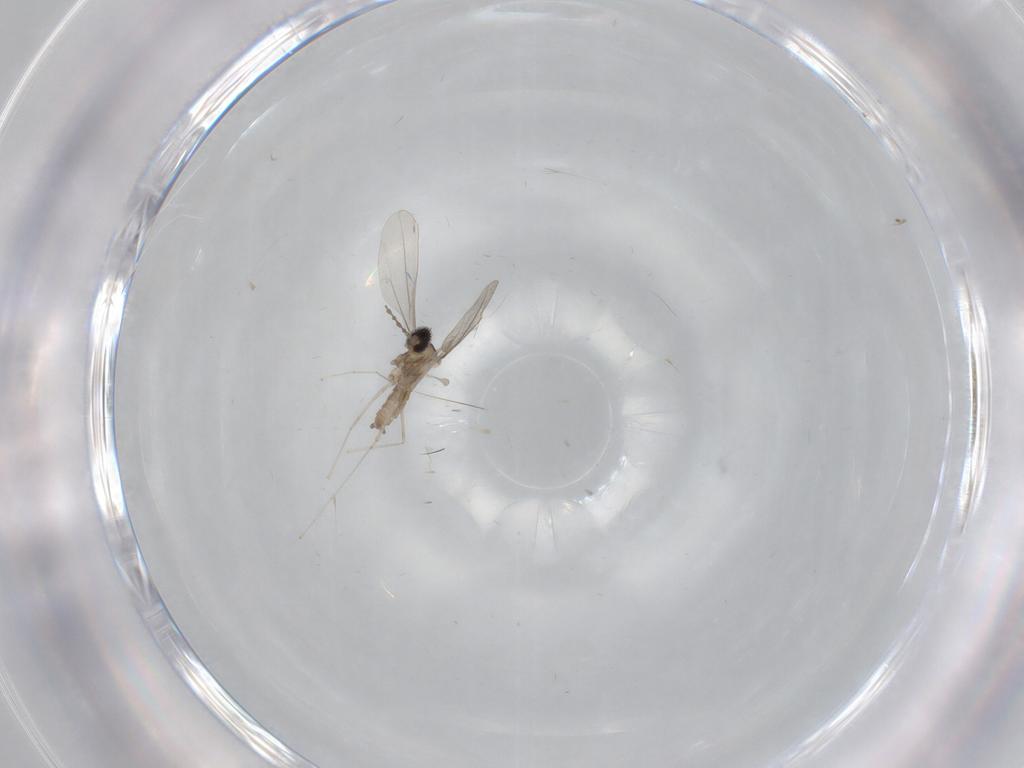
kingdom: Animalia
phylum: Arthropoda
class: Insecta
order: Diptera
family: Cecidomyiidae
